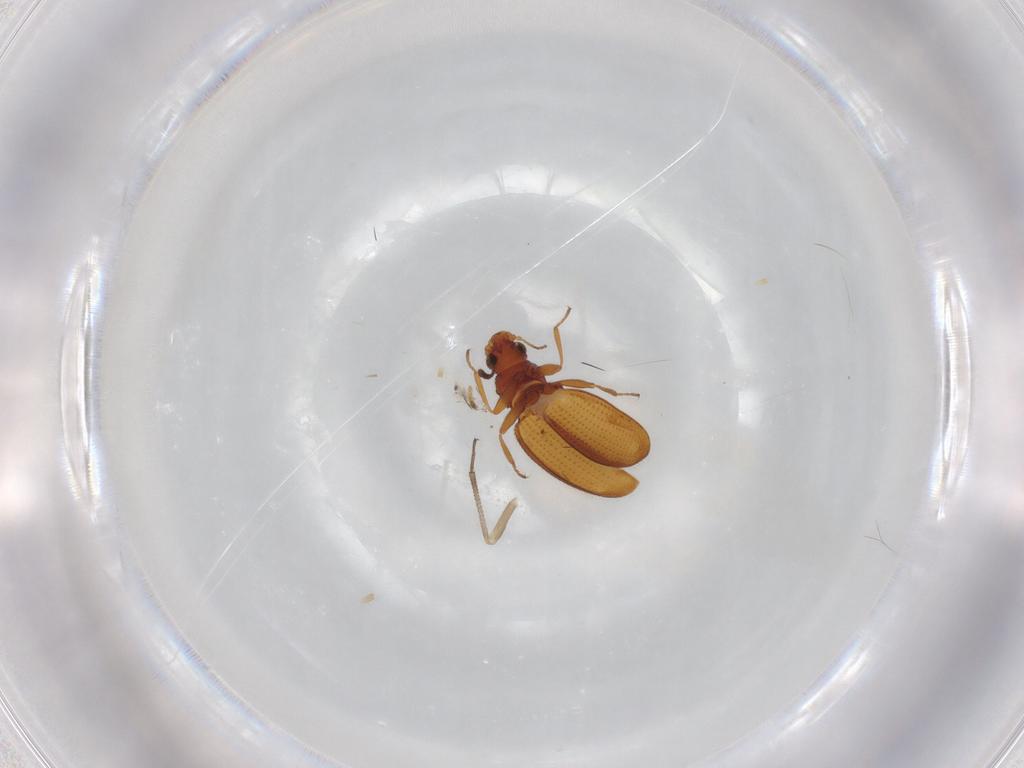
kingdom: Animalia
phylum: Arthropoda
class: Insecta
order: Coleoptera
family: Latridiidae
